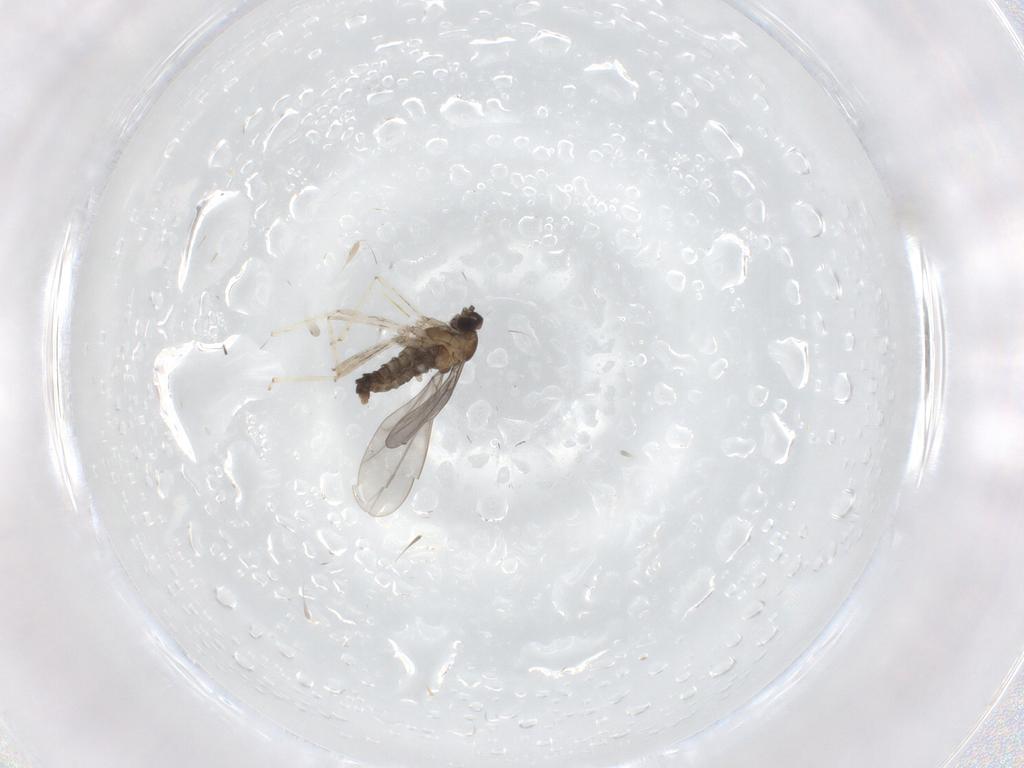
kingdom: Animalia
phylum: Arthropoda
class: Insecta
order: Diptera
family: Cecidomyiidae
